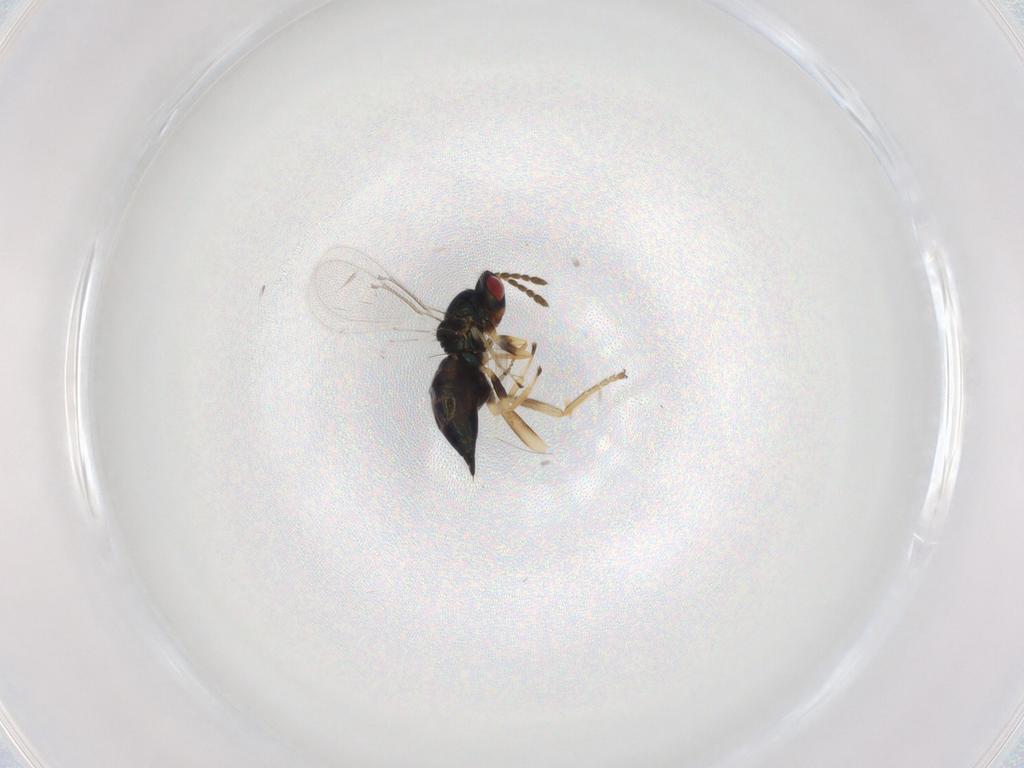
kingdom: Animalia
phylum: Arthropoda
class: Insecta
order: Hymenoptera
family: Eulophidae
